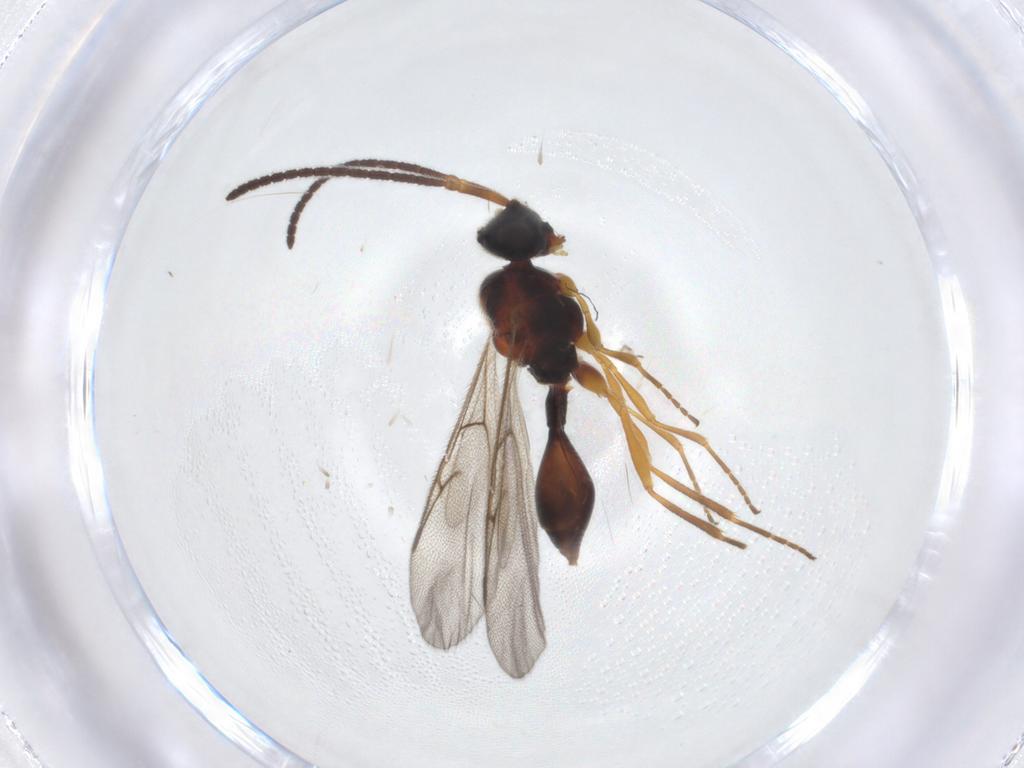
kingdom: Animalia
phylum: Arthropoda
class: Insecta
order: Hymenoptera
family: Diapriidae
